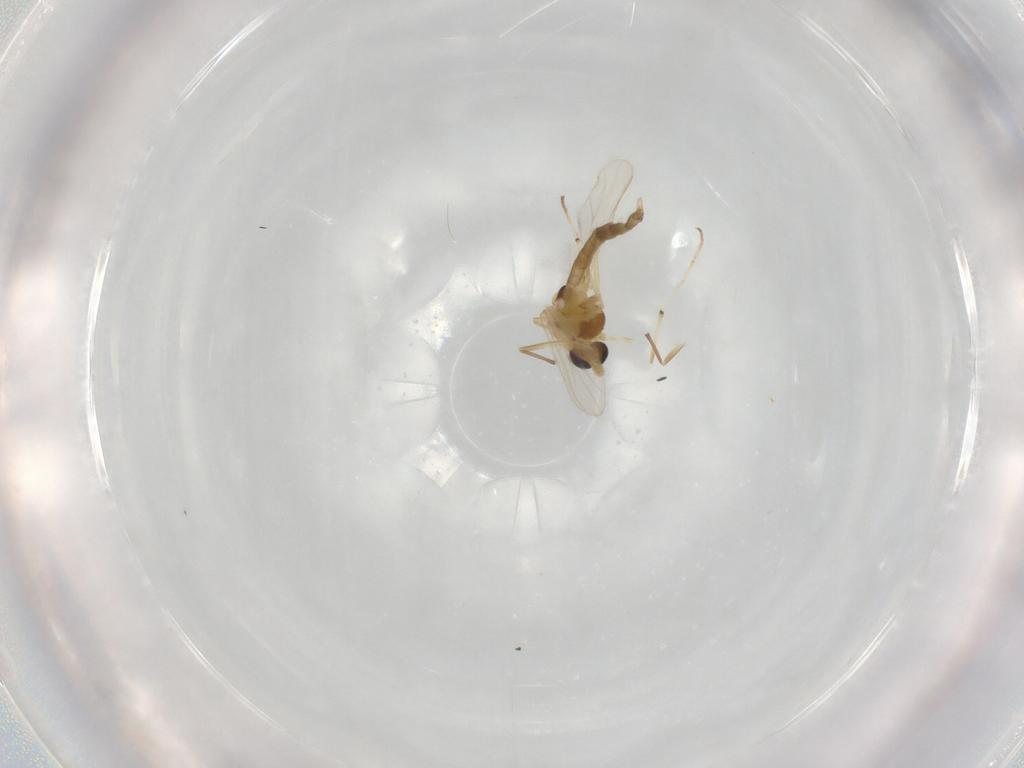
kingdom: Animalia
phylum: Arthropoda
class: Insecta
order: Diptera
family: Chironomidae
